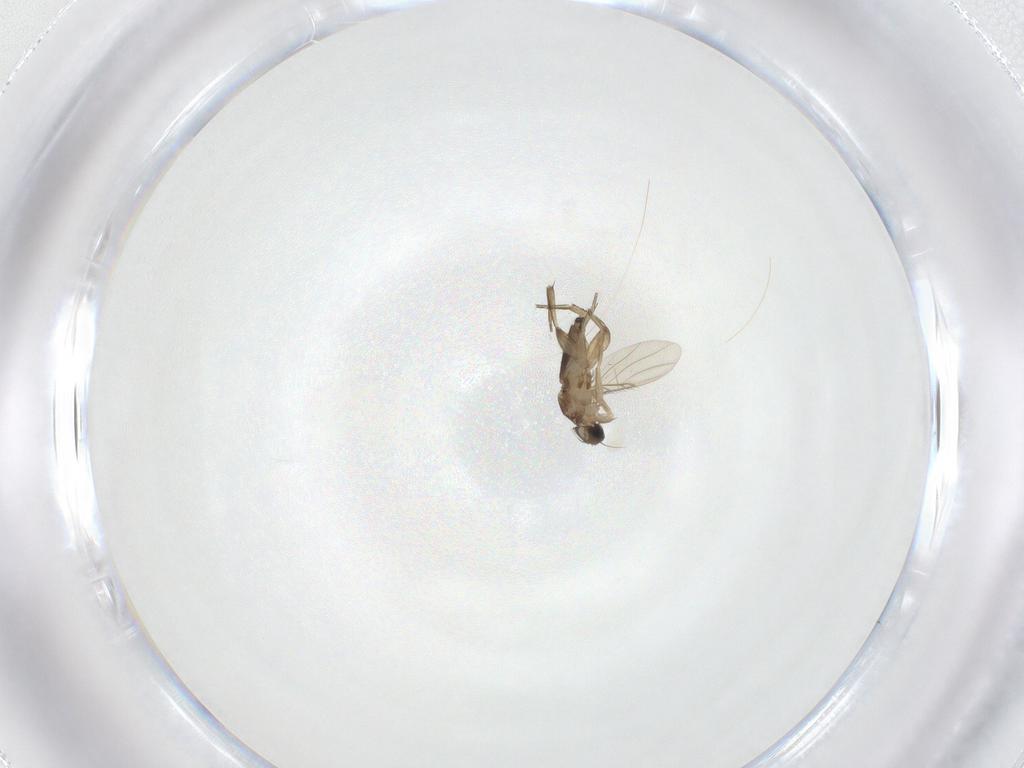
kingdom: Animalia
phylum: Arthropoda
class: Insecta
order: Diptera
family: Phoridae
